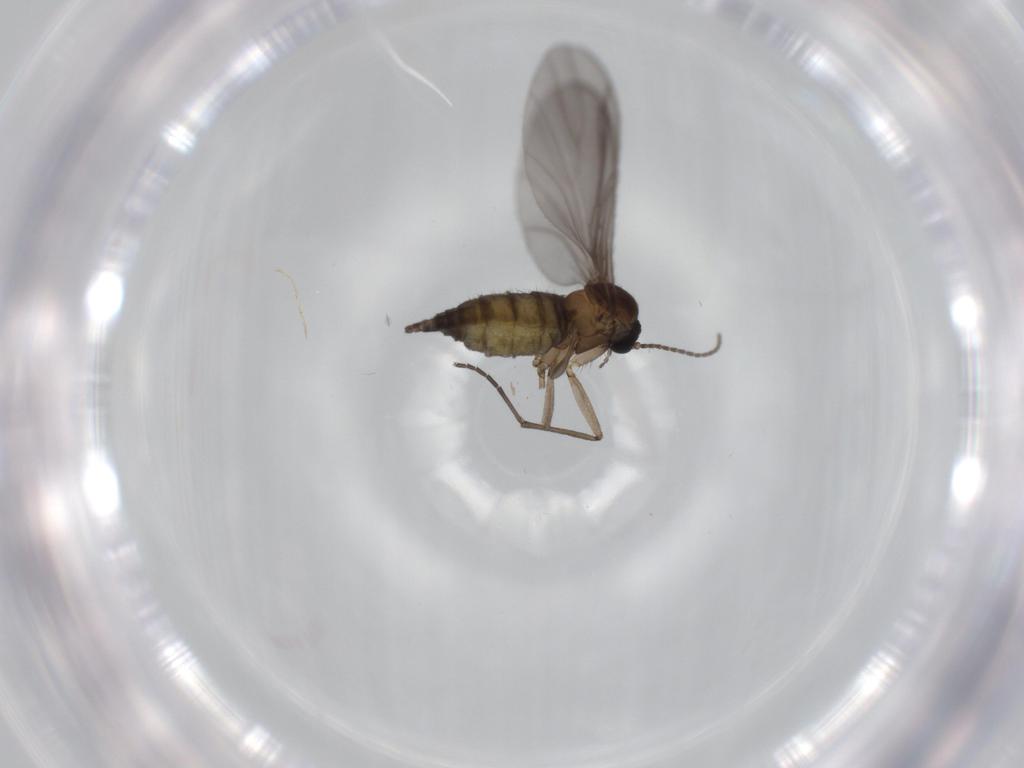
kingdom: Animalia
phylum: Arthropoda
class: Insecta
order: Diptera
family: Sciaridae
